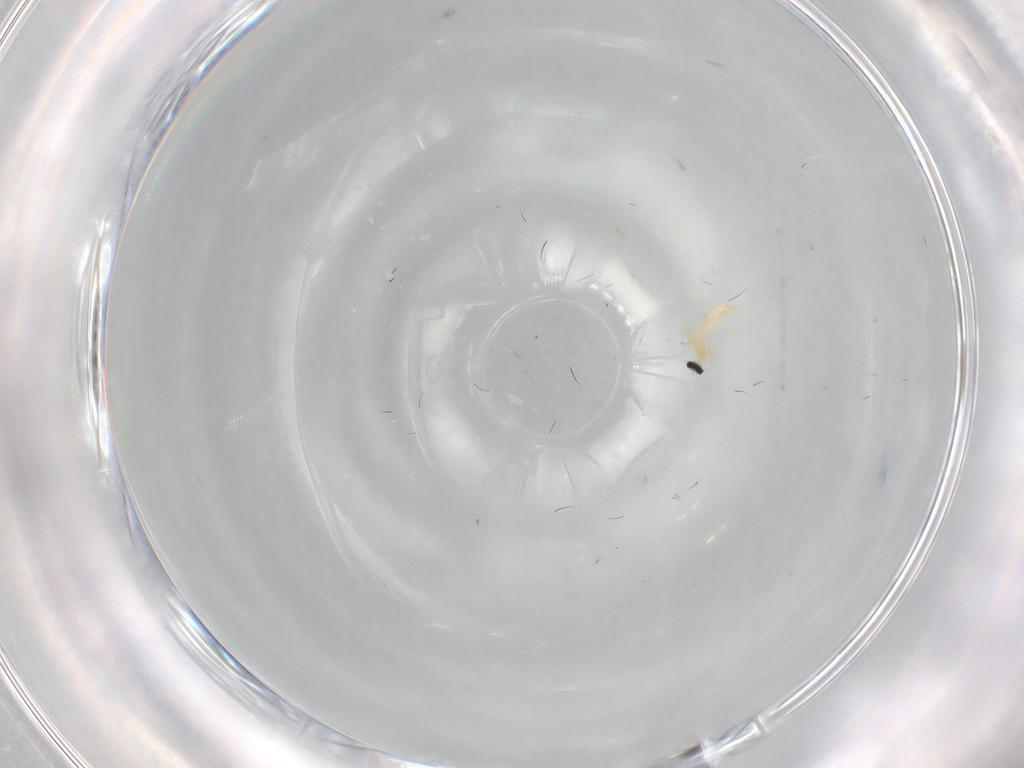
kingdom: Animalia
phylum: Arthropoda
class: Insecta
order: Diptera
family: Cecidomyiidae
